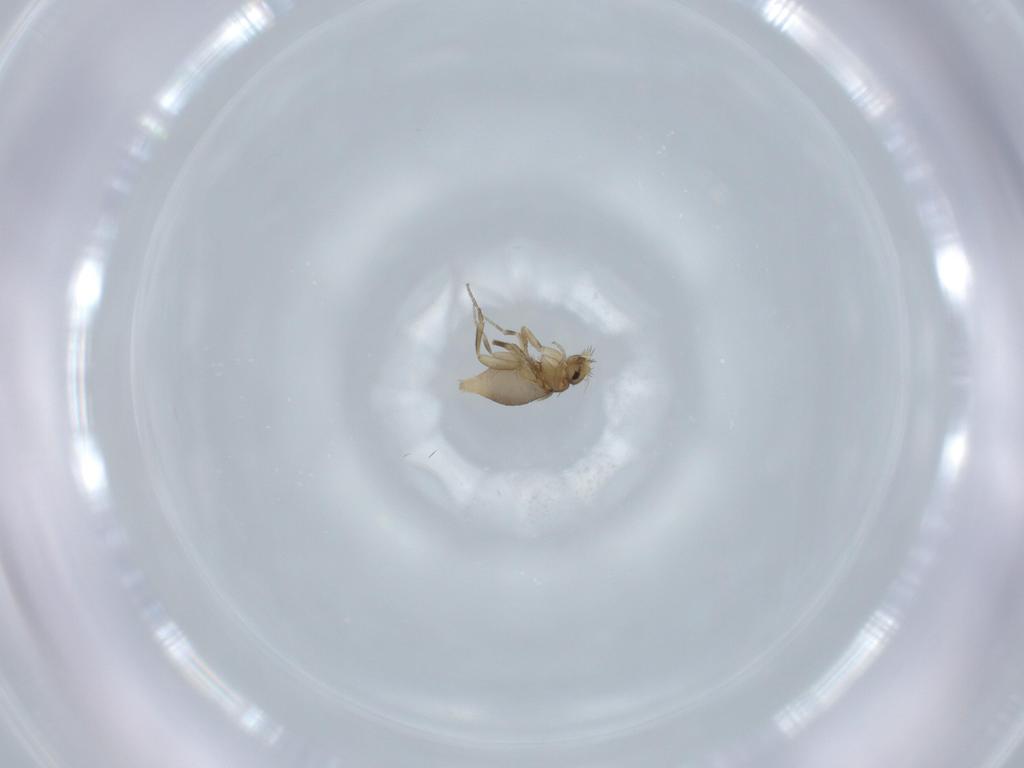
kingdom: Animalia
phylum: Arthropoda
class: Insecta
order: Diptera
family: Phoridae
